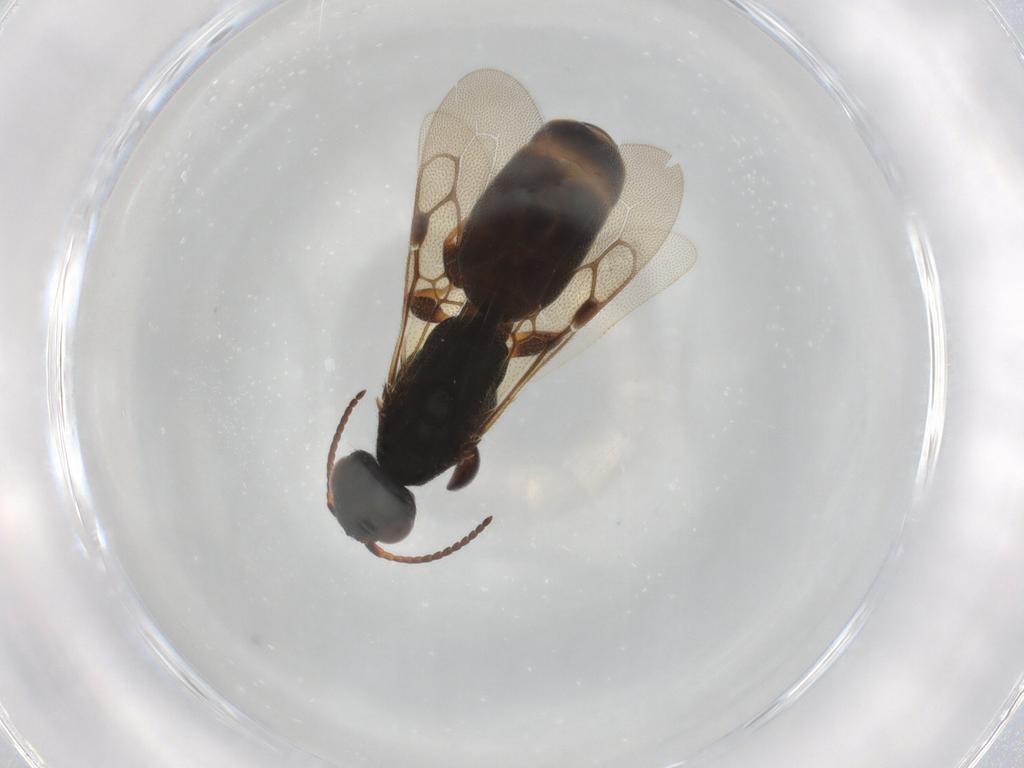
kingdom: Animalia
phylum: Arthropoda
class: Insecta
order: Hymenoptera
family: Bethylidae
